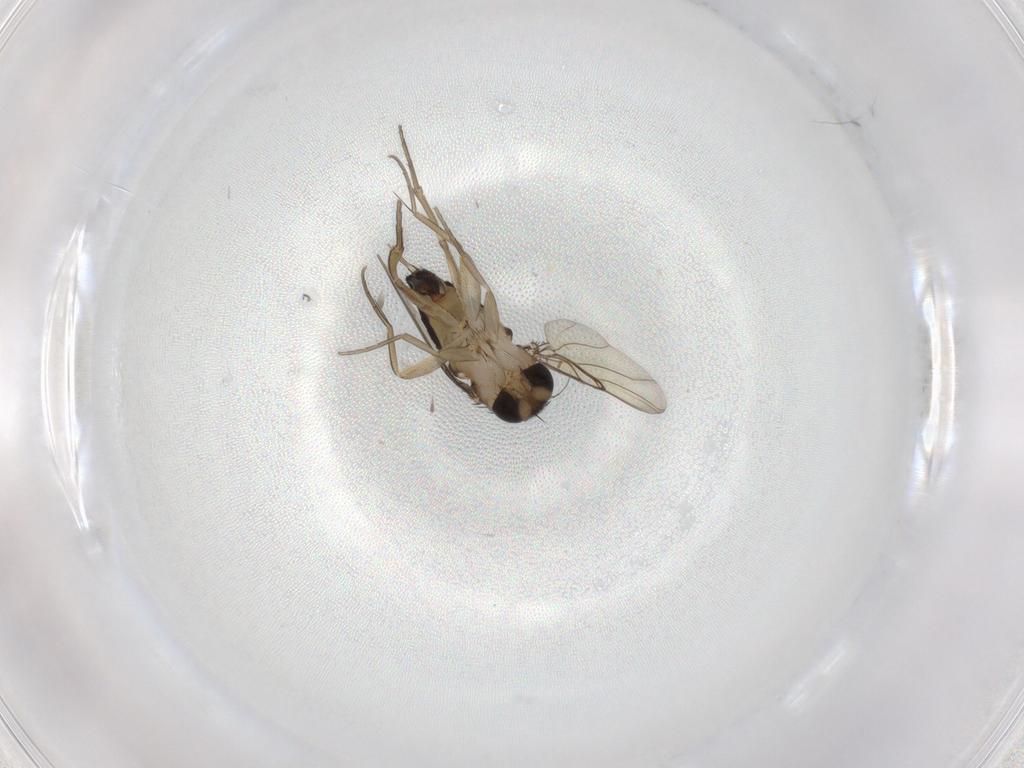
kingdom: Animalia
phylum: Arthropoda
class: Insecta
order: Diptera
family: Phoridae
